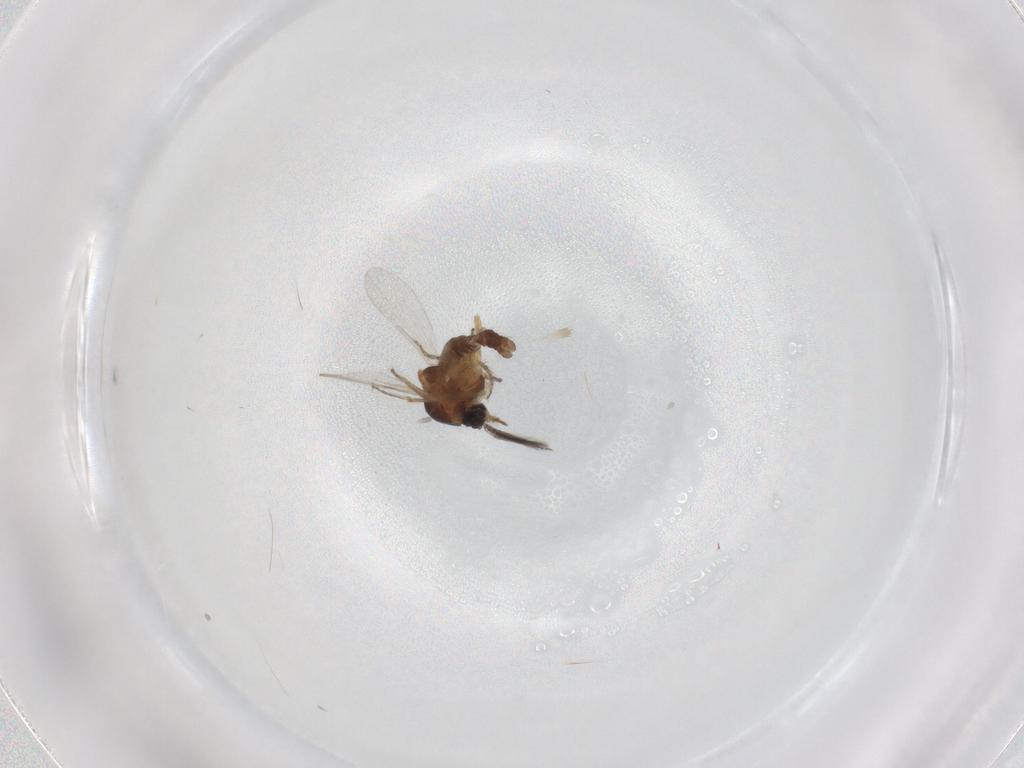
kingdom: Animalia
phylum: Arthropoda
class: Insecta
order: Diptera
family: Ceratopogonidae
